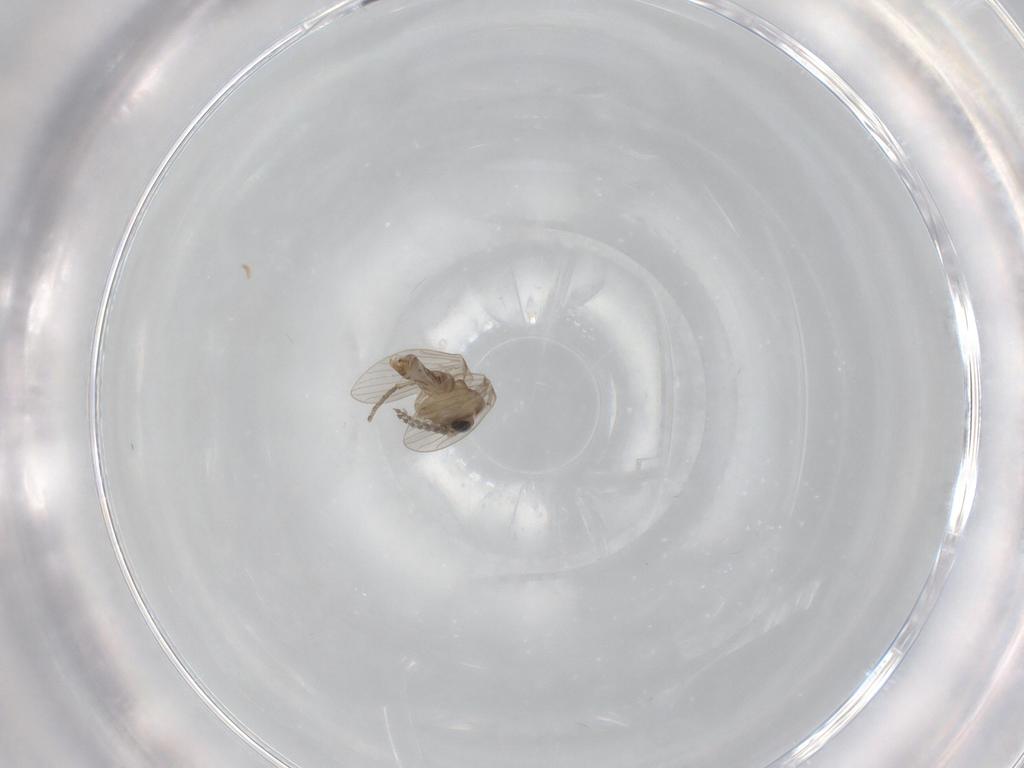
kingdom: Animalia
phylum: Arthropoda
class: Insecta
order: Diptera
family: Psychodidae
